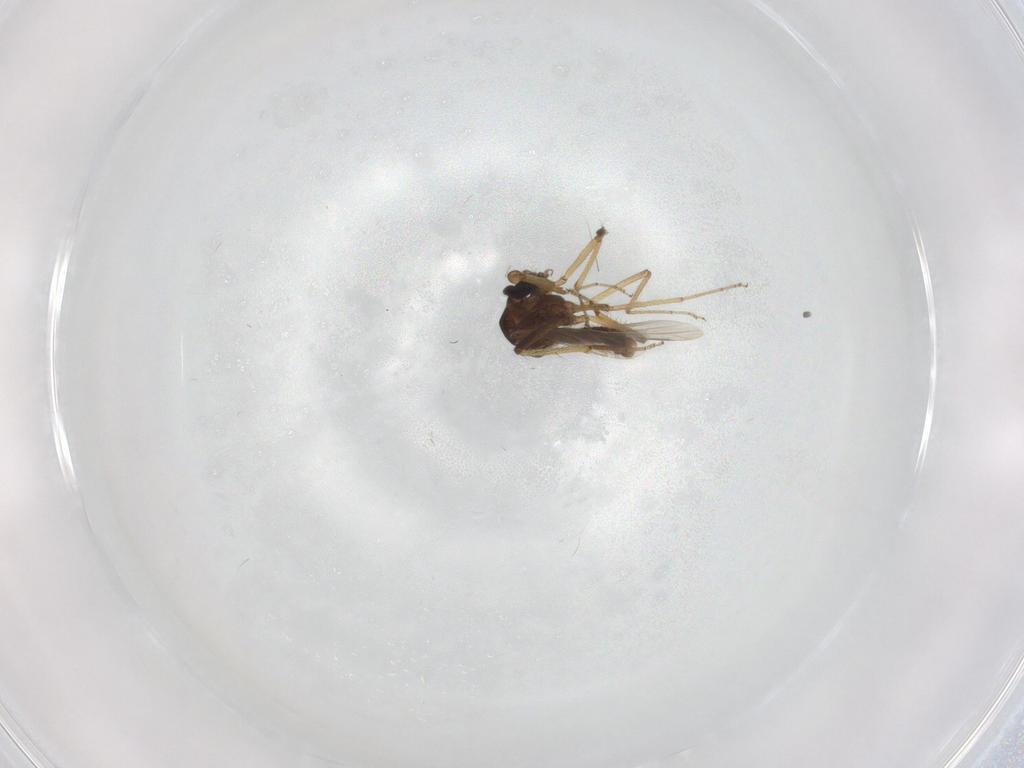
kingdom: Animalia
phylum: Arthropoda
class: Insecta
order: Diptera
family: Ceratopogonidae
